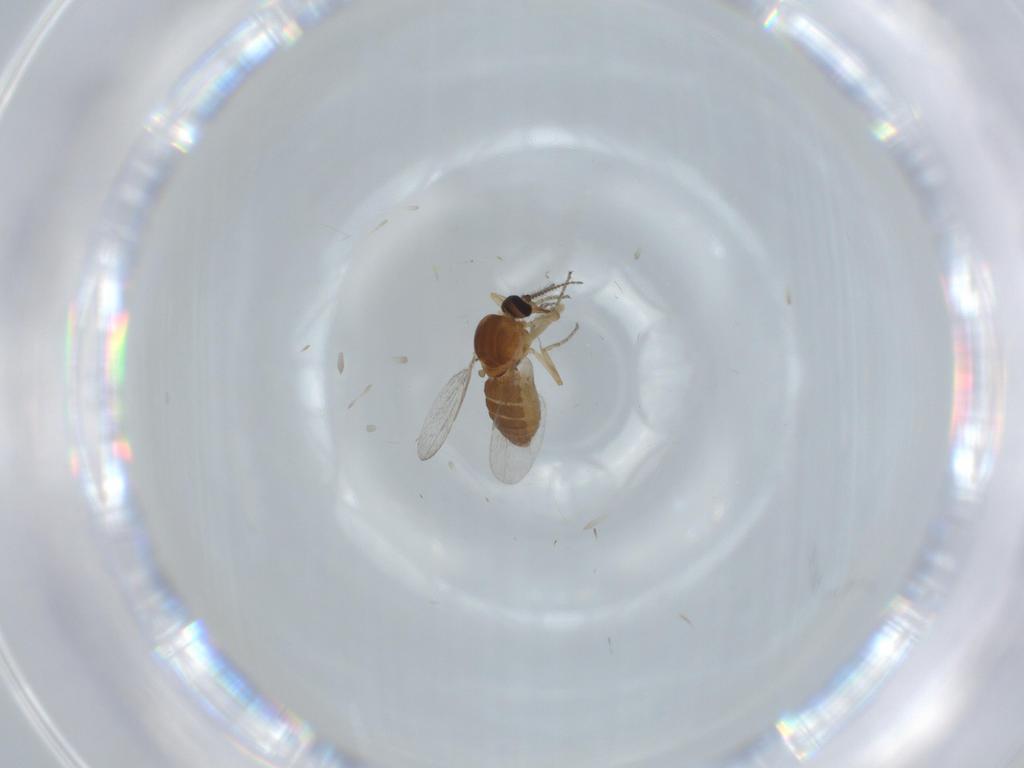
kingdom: Animalia
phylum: Arthropoda
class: Insecta
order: Diptera
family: Ceratopogonidae
